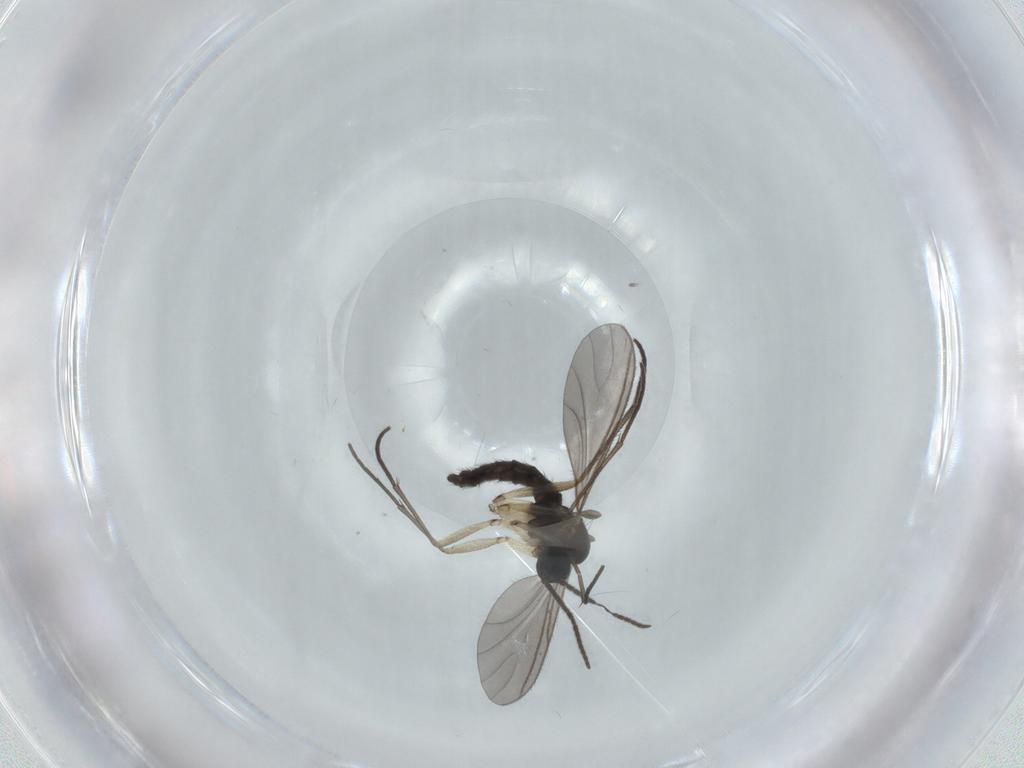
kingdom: Animalia
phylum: Arthropoda
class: Insecta
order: Diptera
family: Sciaridae
